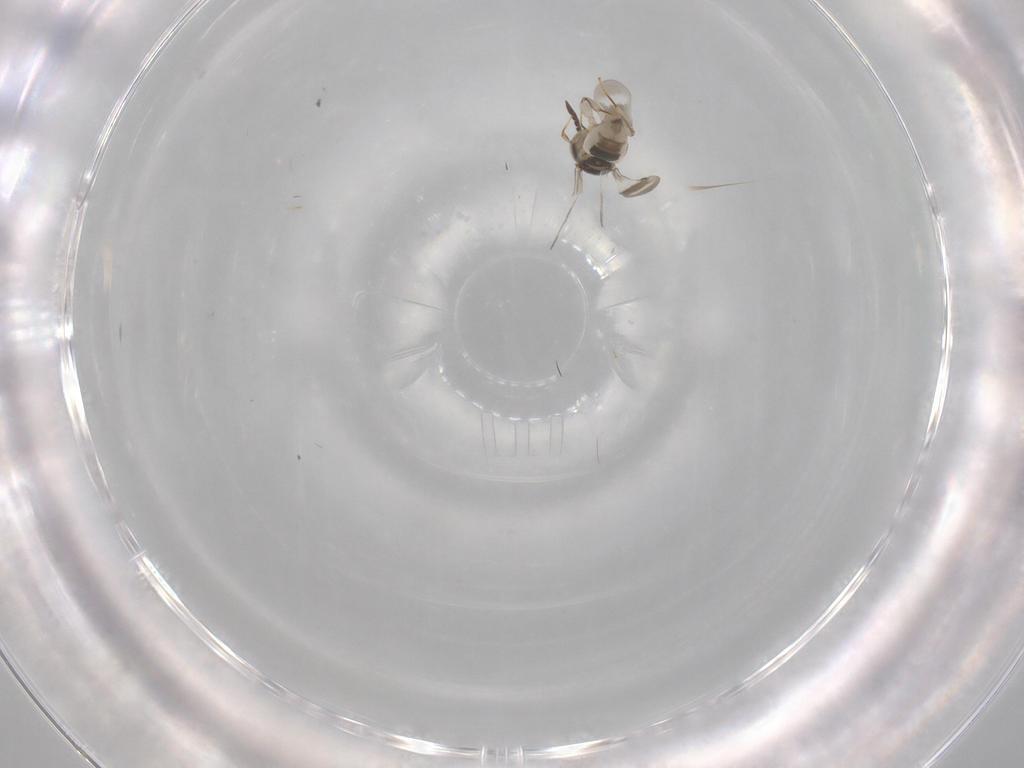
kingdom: Animalia
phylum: Arthropoda
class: Insecta
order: Hymenoptera
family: Ceraphronidae
